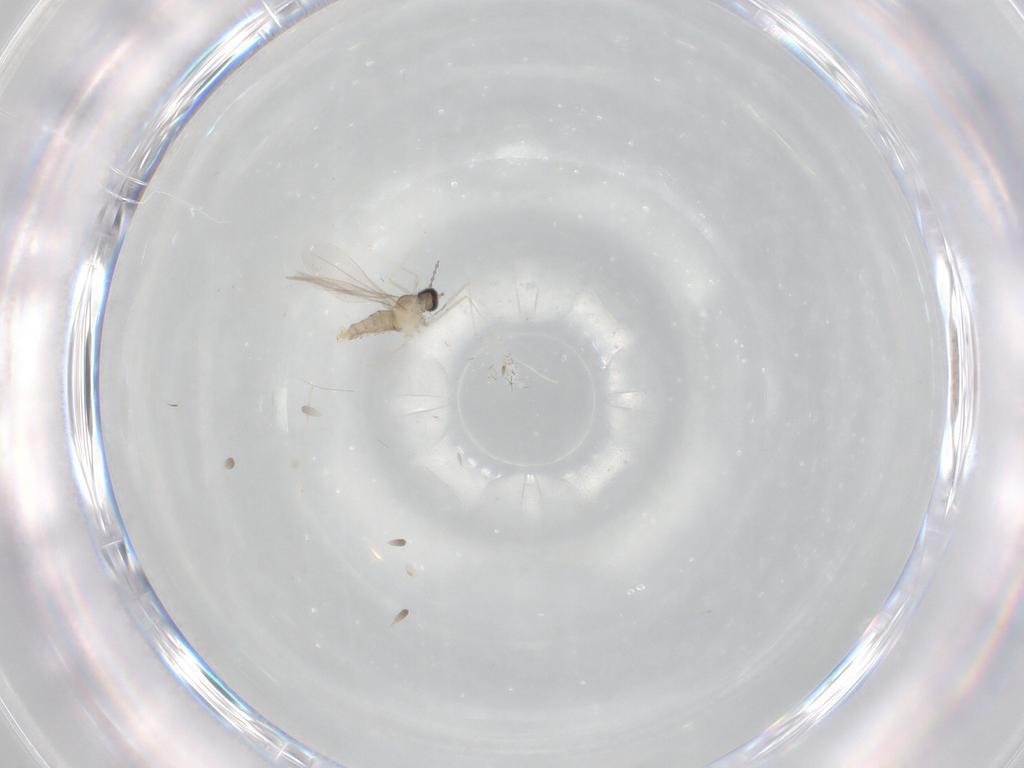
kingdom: Animalia
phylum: Arthropoda
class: Insecta
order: Diptera
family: Cecidomyiidae
